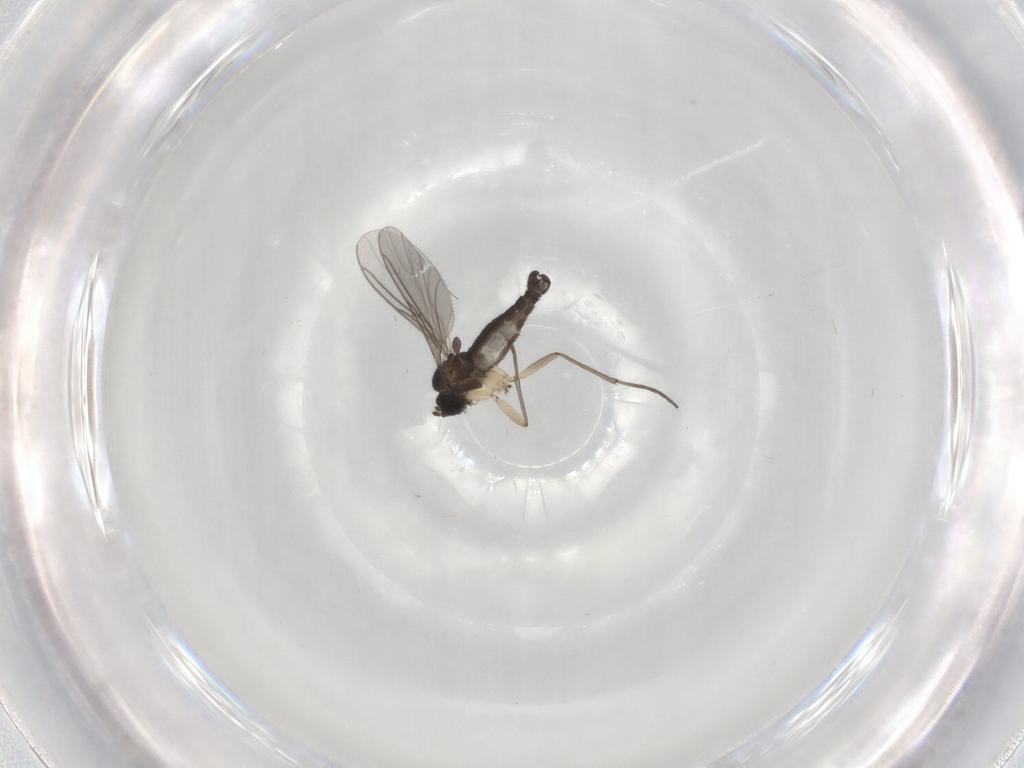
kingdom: Animalia
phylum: Arthropoda
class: Insecta
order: Diptera
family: Sciaridae
